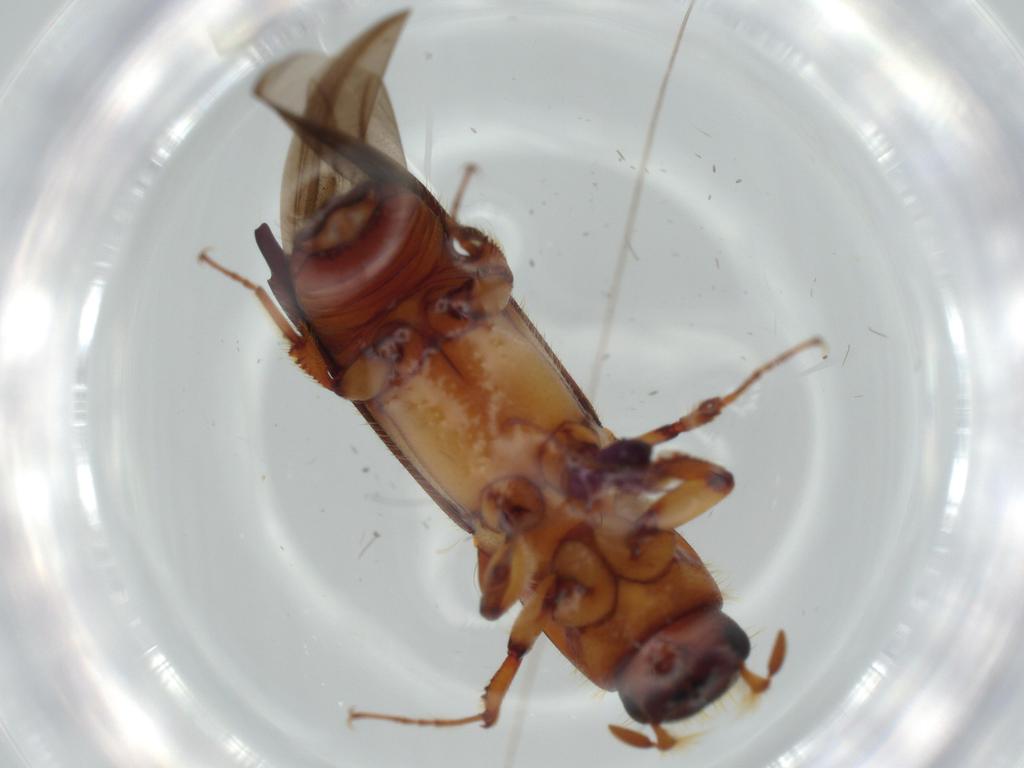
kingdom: Animalia
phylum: Arthropoda
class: Insecta
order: Coleoptera
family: Curculionidae
